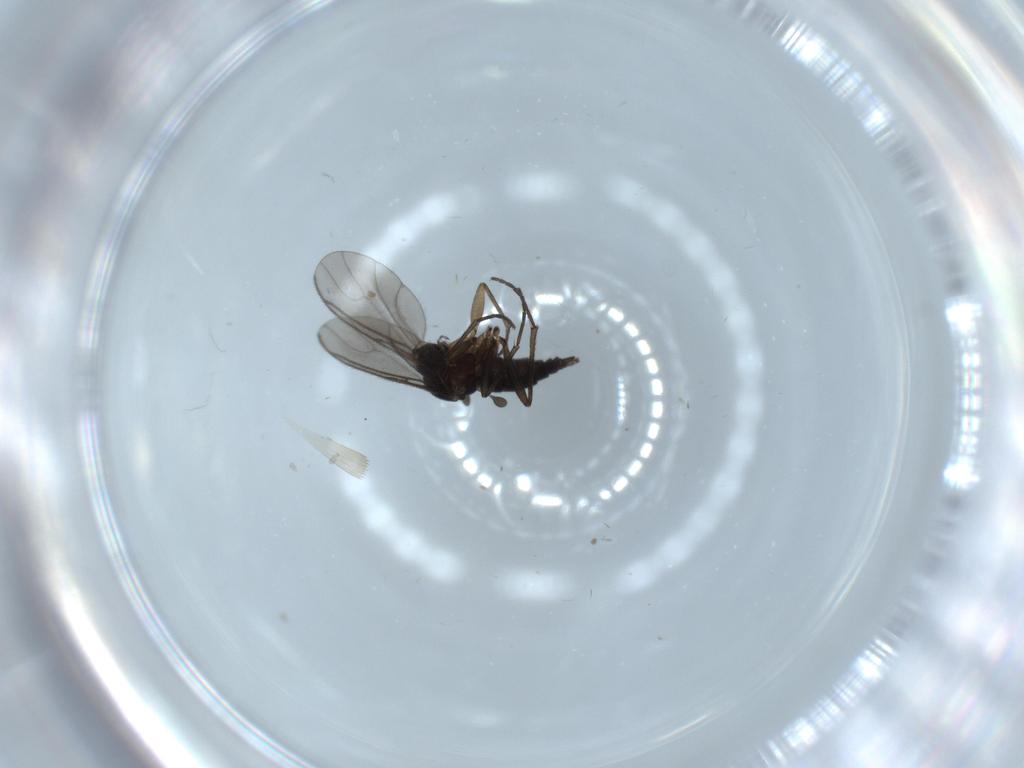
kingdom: Animalia
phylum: Arthropoda
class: Insecta
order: Diptera
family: Sciaridae
